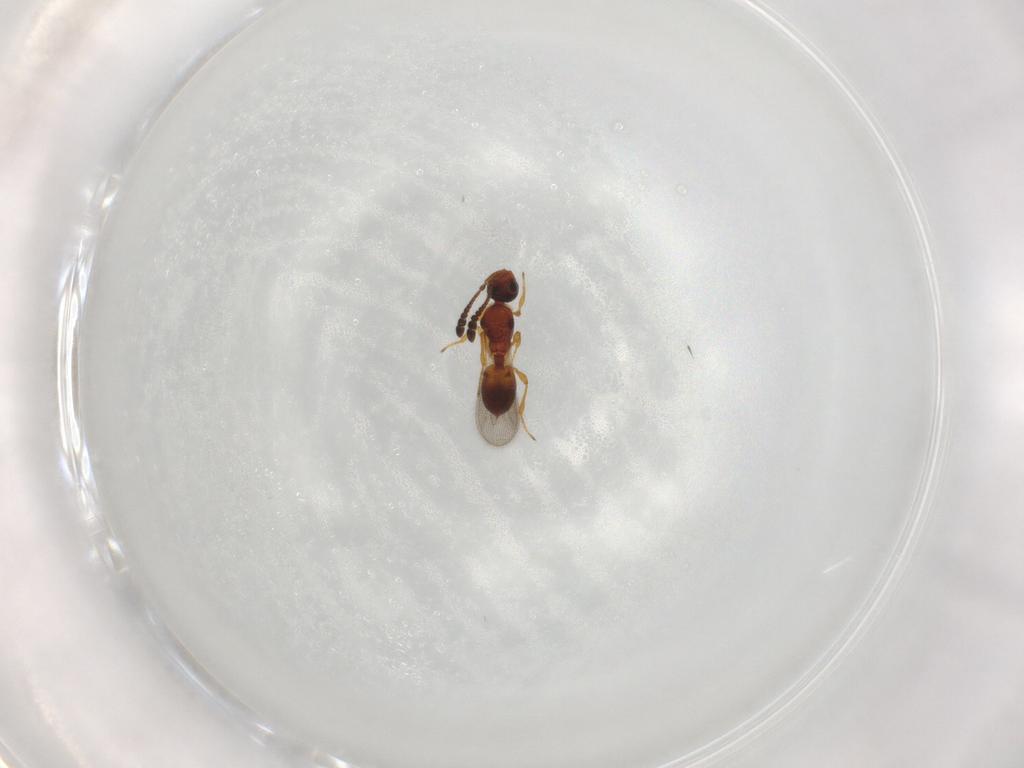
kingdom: Animalia
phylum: Arthropoda
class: Insecta
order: Hymenoptera
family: Diapriidae
